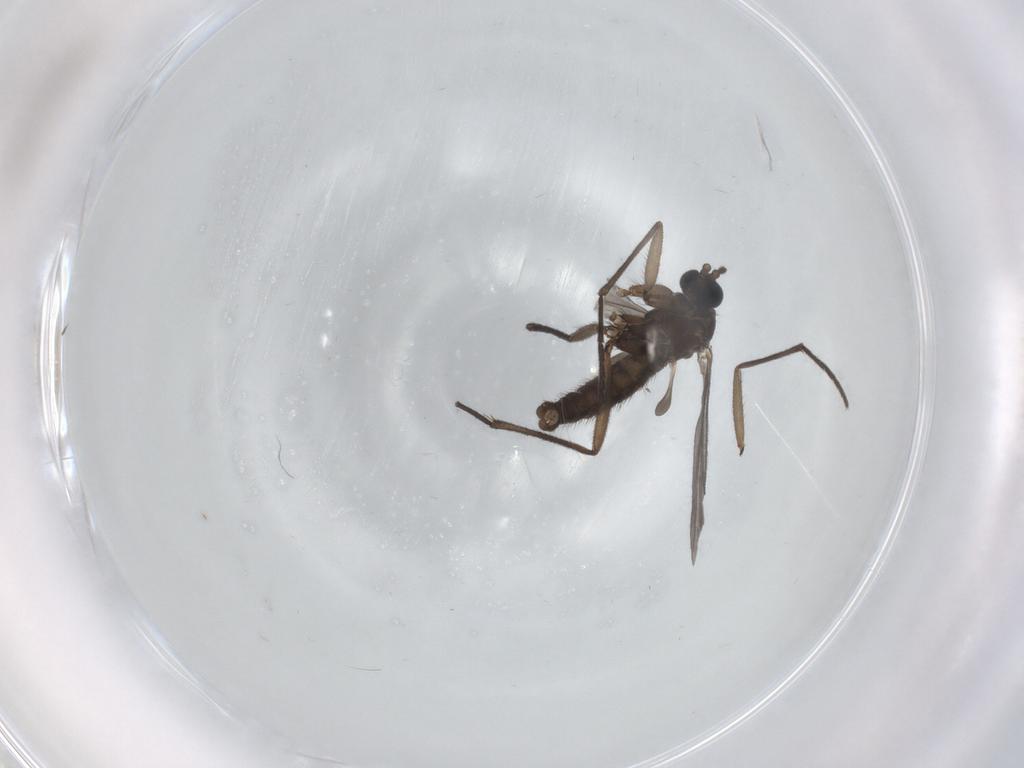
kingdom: Animalia
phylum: Arthropoda
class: Insecta
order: Diptera
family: Sciaridae
